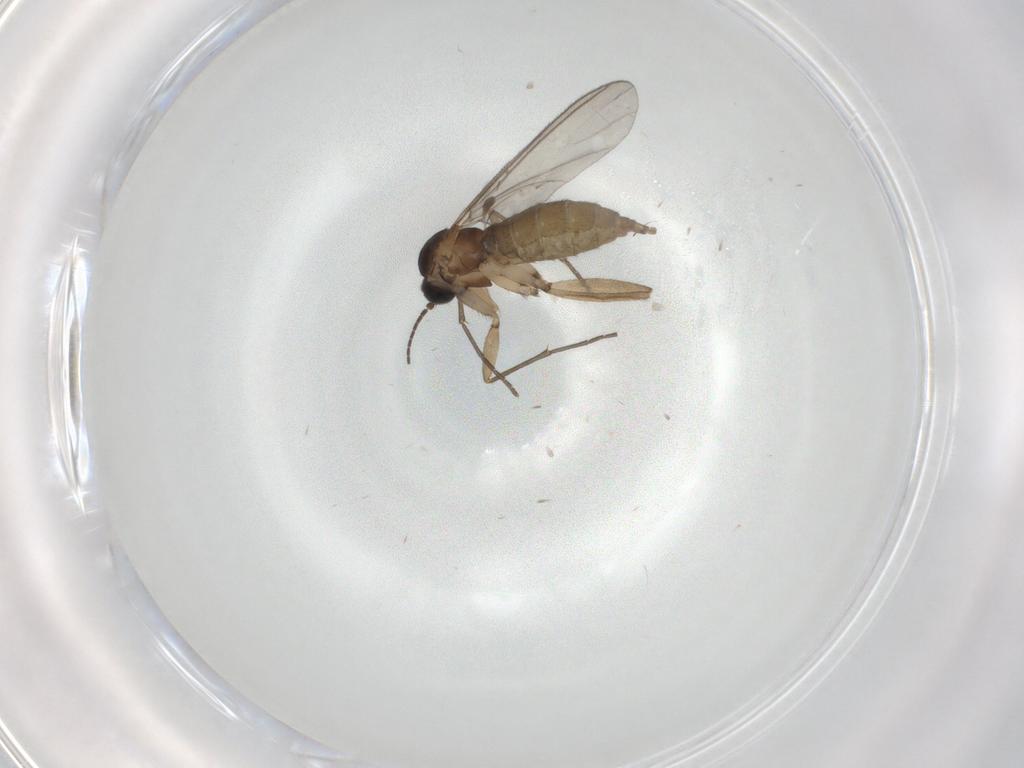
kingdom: Animalia
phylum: Arthropoda
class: Insecta
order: Diptera
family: Sciaridae
